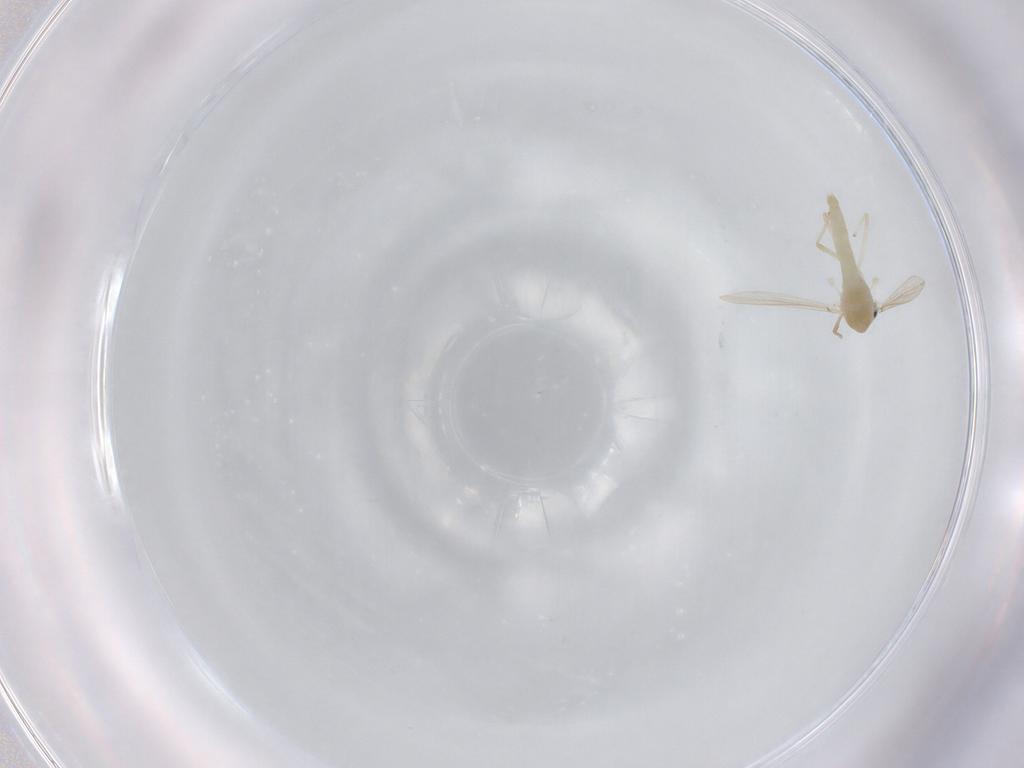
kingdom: Animalia
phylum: Arthropoda
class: Insecta
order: Diptera
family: Chironomidae
